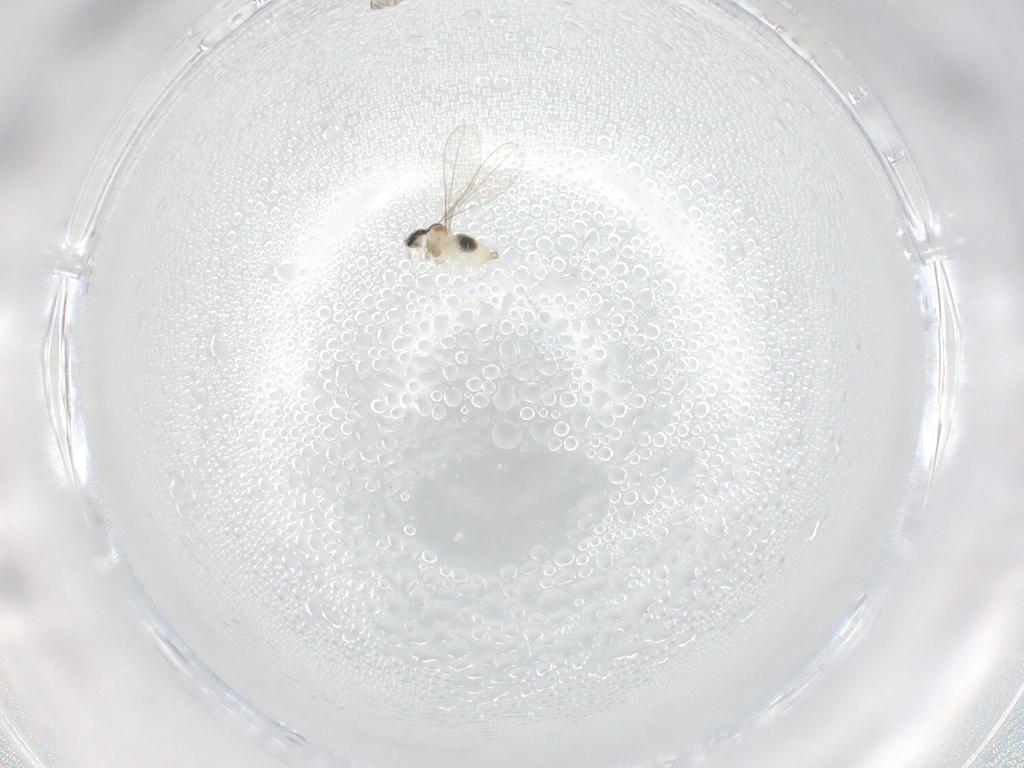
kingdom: Animalia
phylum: Arthropoda
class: Insecta
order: Diptera
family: Cecidomyiidae
